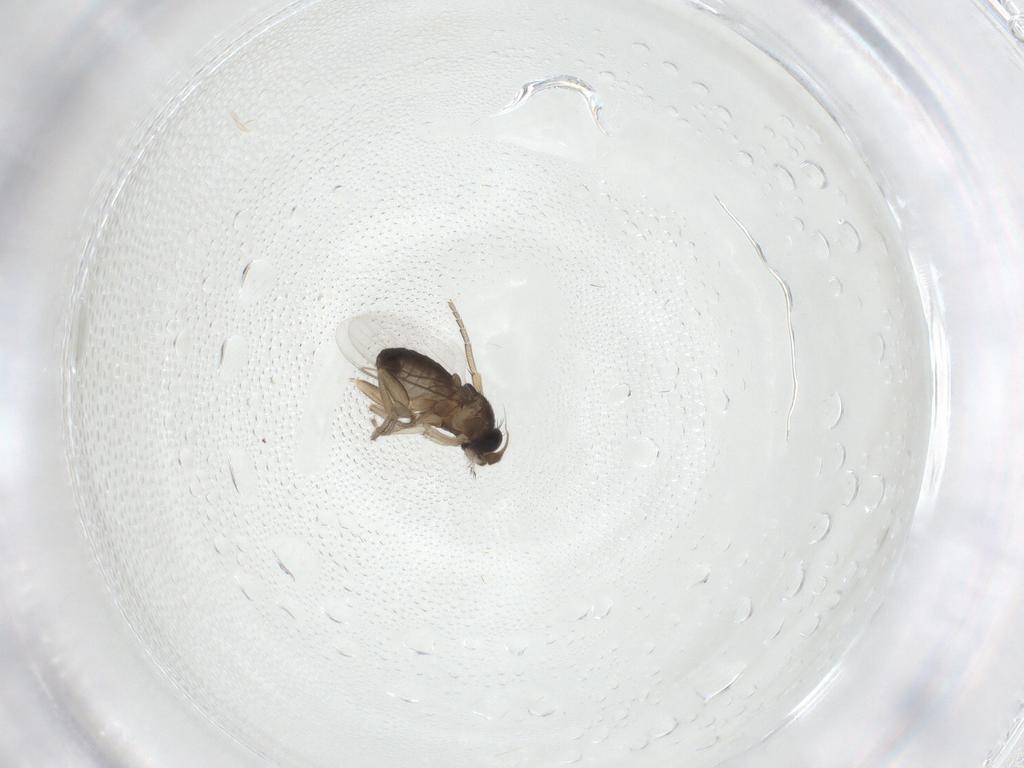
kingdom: Animalia
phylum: Arthropoda
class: Insecta
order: Diptera
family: Phoridae
